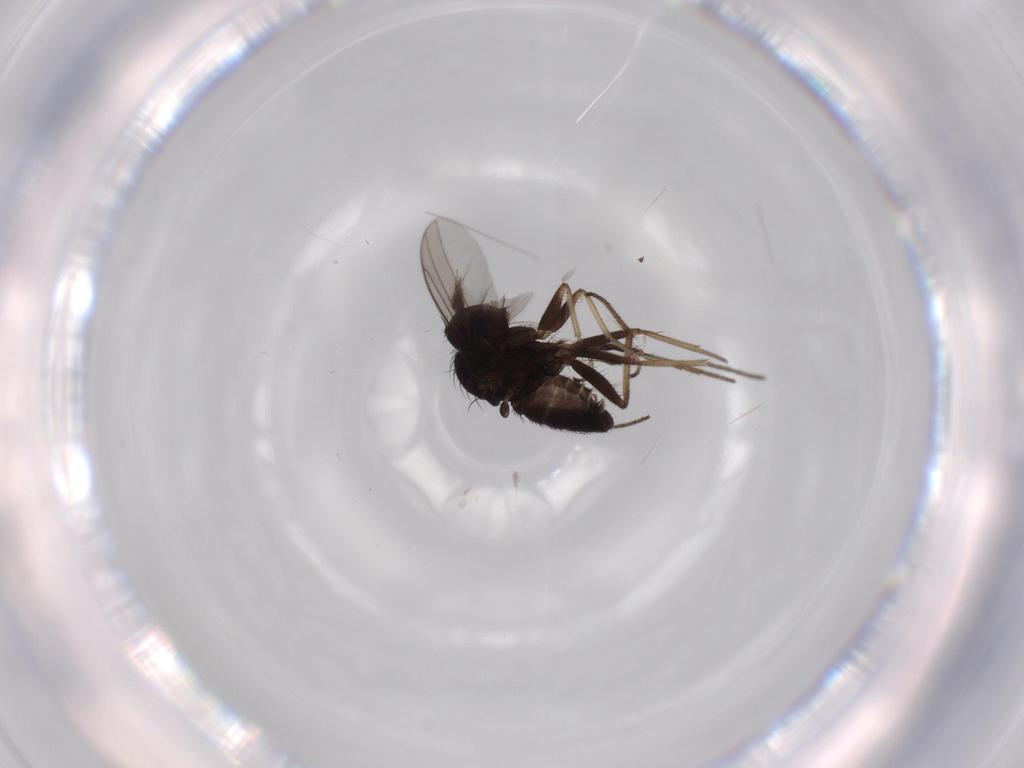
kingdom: Animalia
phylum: Arthropoda
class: Insecta
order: Diptera
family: Dolichopodidae
